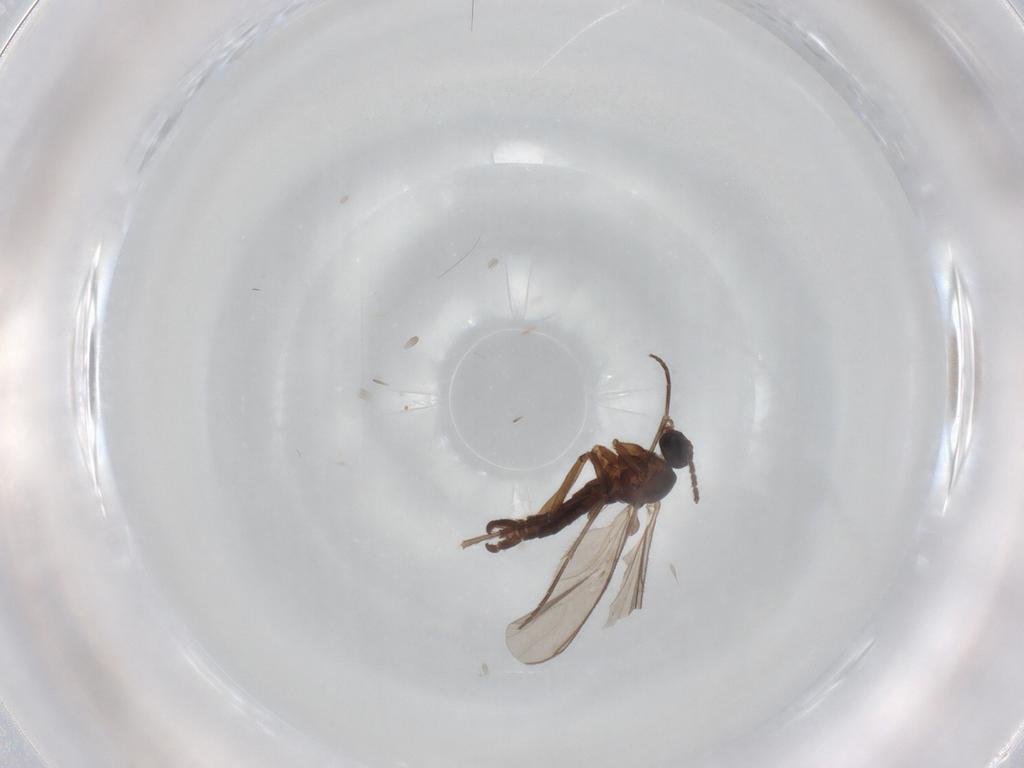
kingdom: Animalia
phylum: Arthropoda
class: Insecta
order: Diptera
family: Sciaridae
